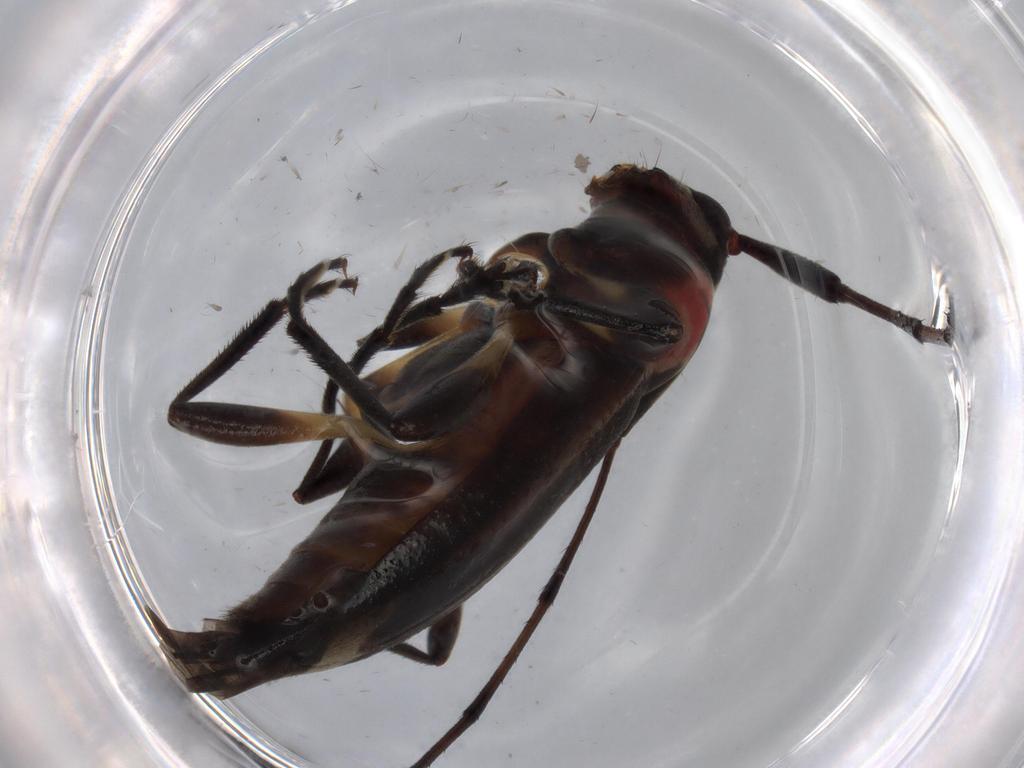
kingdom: Animalia
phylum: Arthropoda
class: Insecta
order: Coleoptera
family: Cerambycidae
